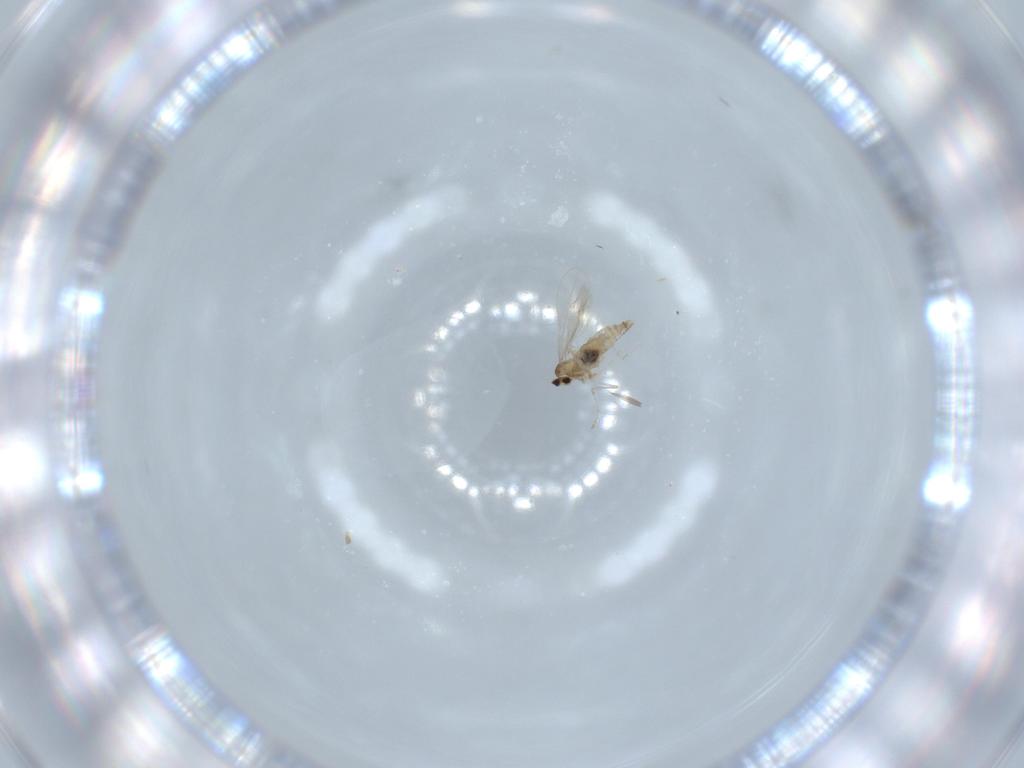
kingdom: Animalia
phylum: Arthropoda
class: Insecta
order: Diptera
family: Cecidomyiidae
